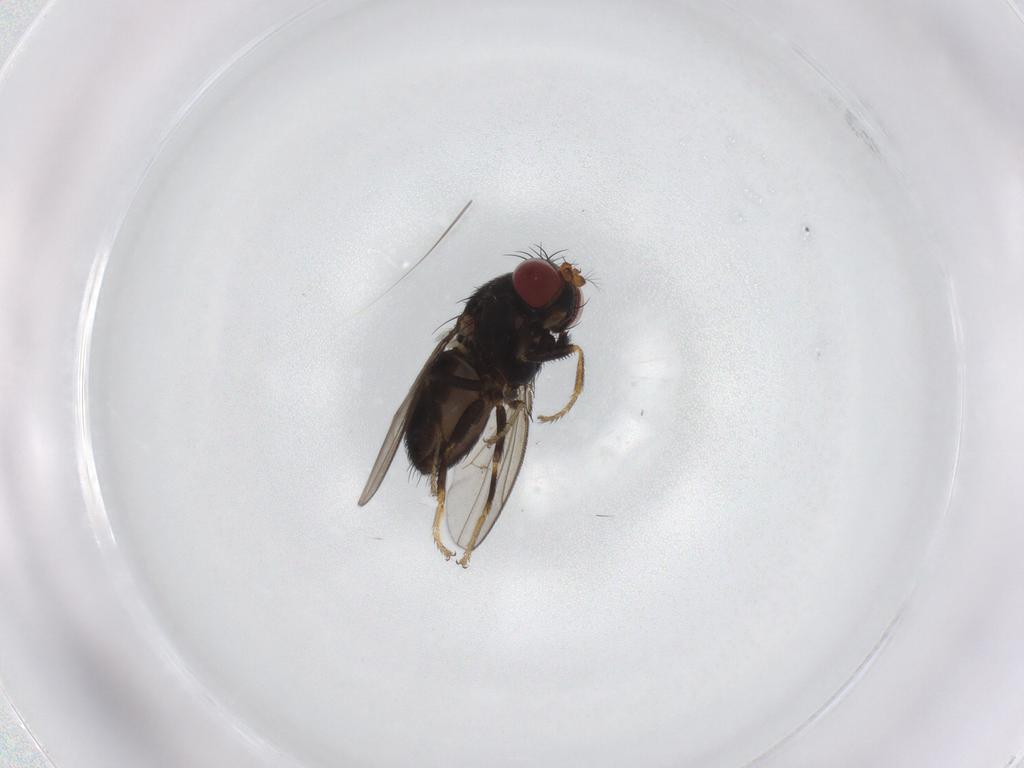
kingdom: Animalia
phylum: Arthropoda
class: Insecta
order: Diptera
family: Ephydridae
